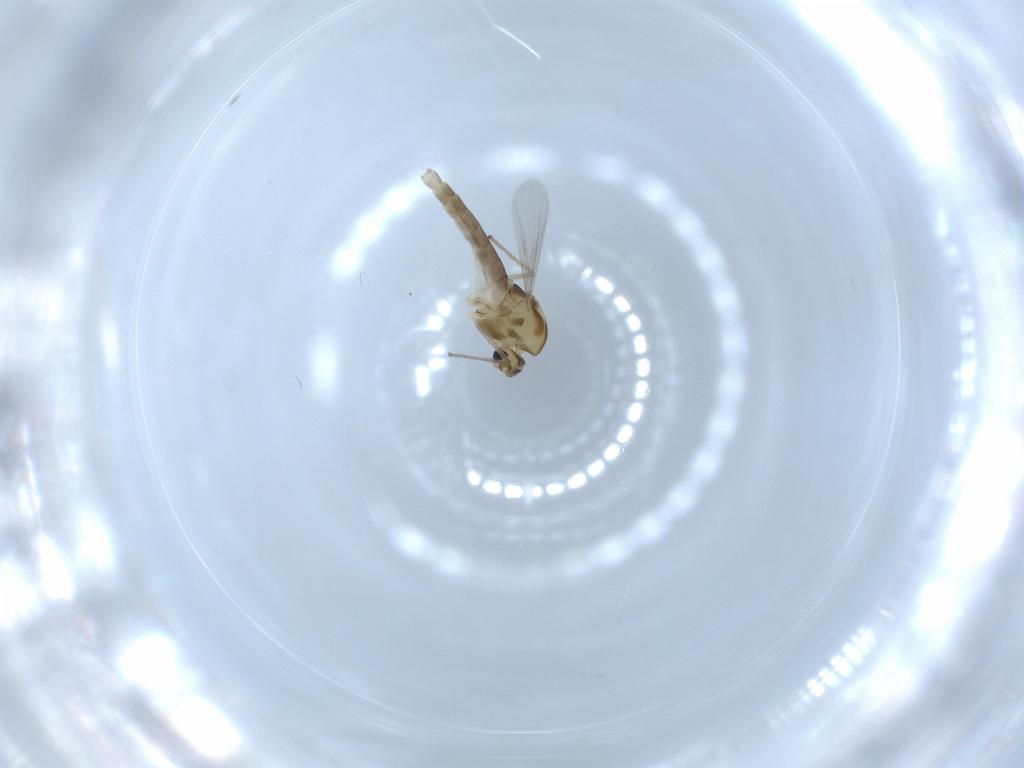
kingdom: Animalia
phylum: Arthropoda
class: Insecta
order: Diptera
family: Chironomidae
